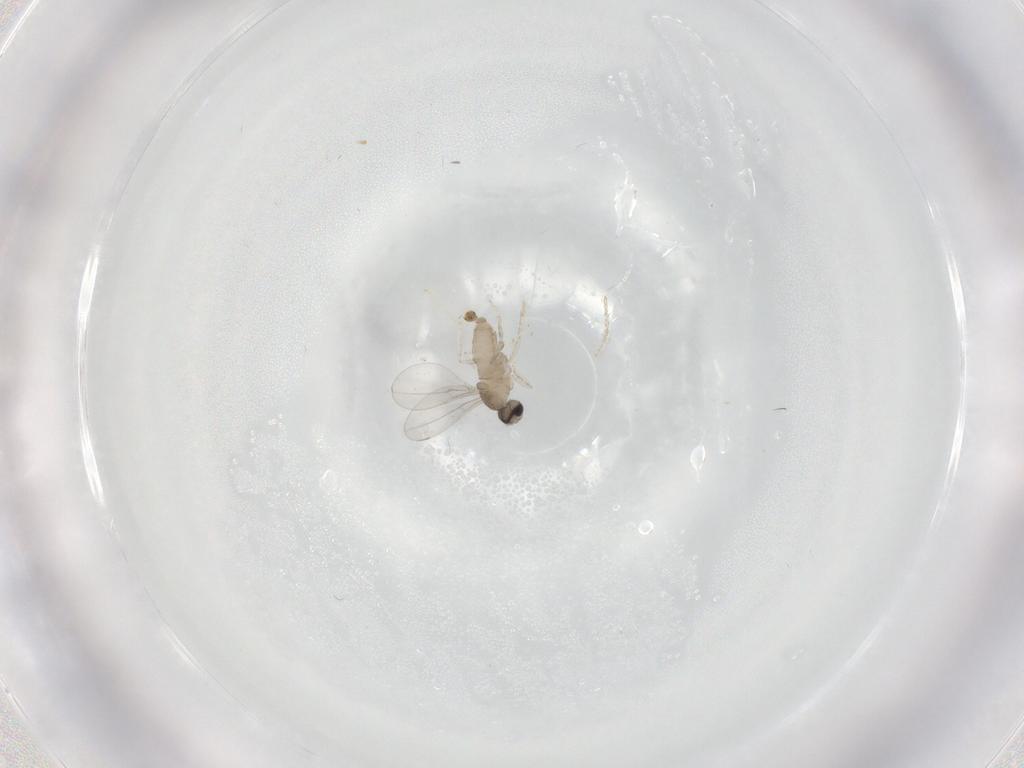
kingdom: Animalia
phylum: Arthropoda
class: Insecta
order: Diptera
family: Cecidomyiidae
